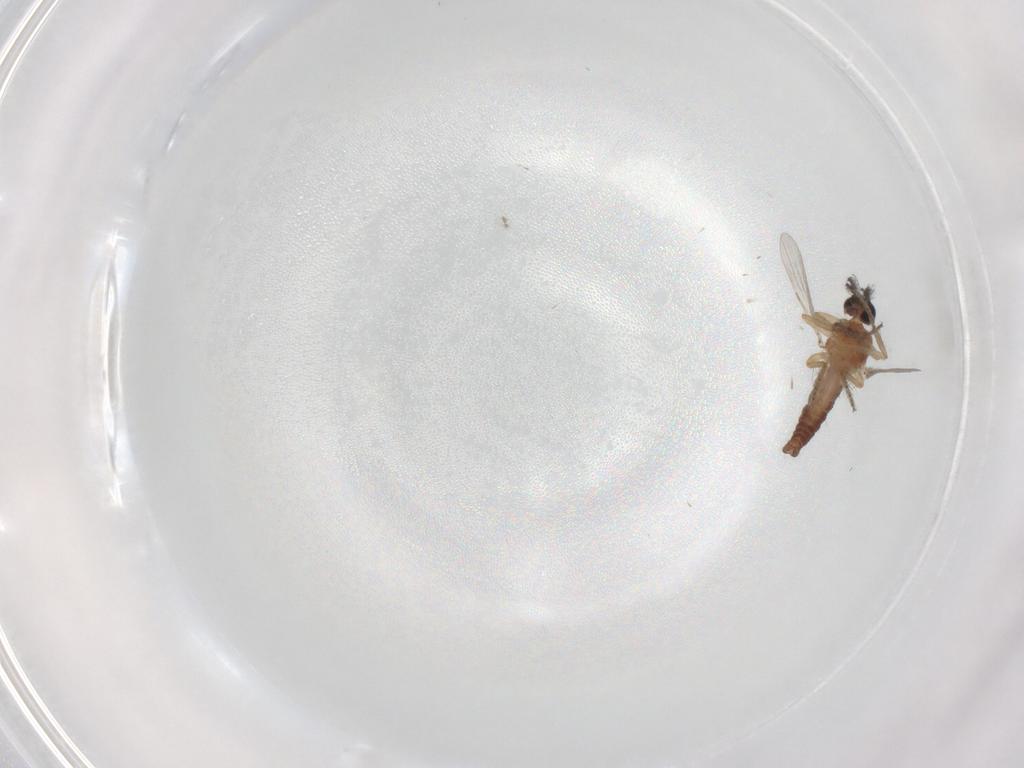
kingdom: Animalia
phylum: Arthropoda
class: Insecta
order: Diptera
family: Ceratopogonidae
